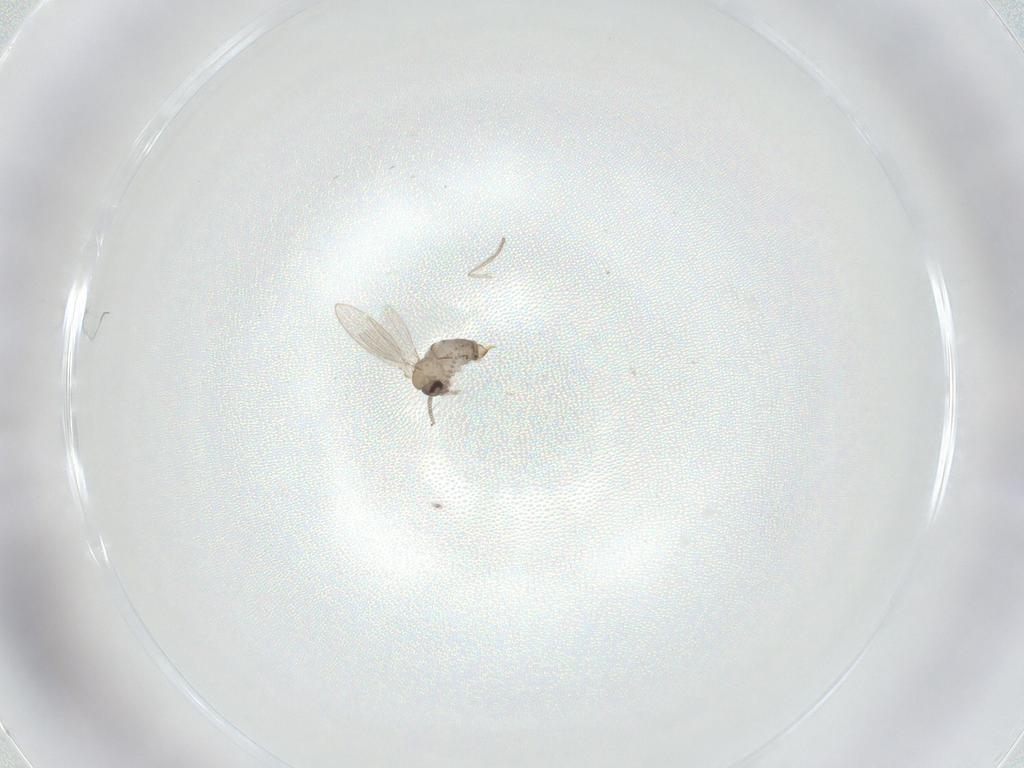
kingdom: Animalia
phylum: Arthropoda
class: Insecta
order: Diptera
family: Psychodidae
